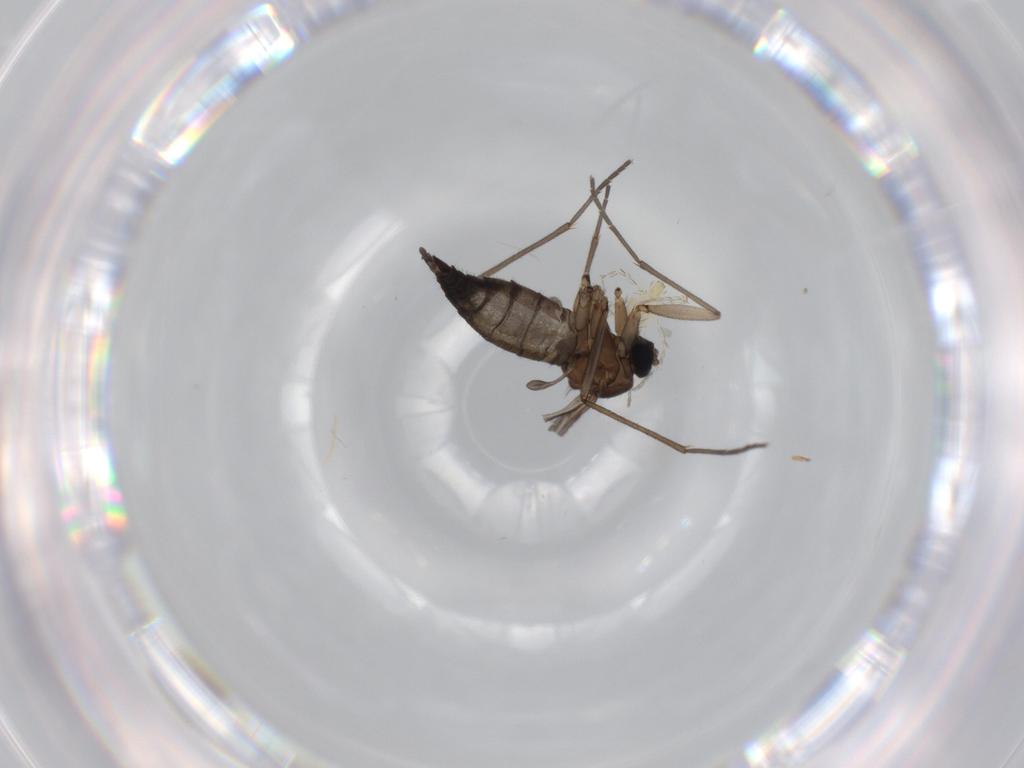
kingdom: Animalia
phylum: Arthropoda
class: Insecta
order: Diptera
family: Sciaridae
